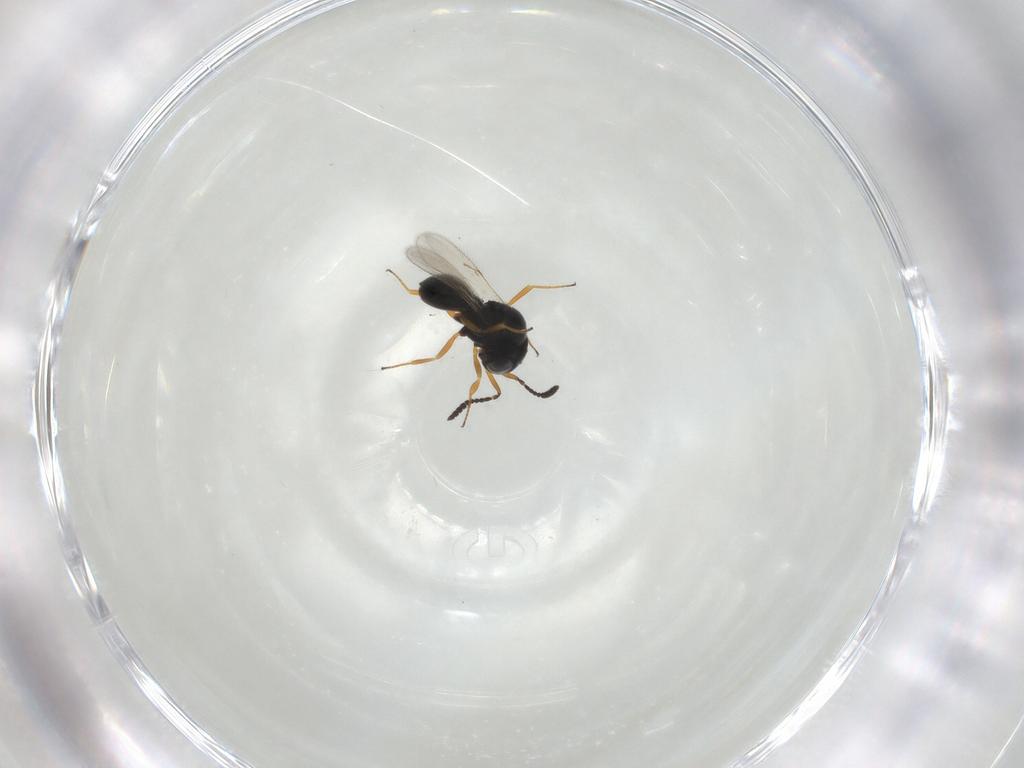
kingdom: Animalia
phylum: Arthropoda
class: Insecta
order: Hymenoptera
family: Scelionidae
